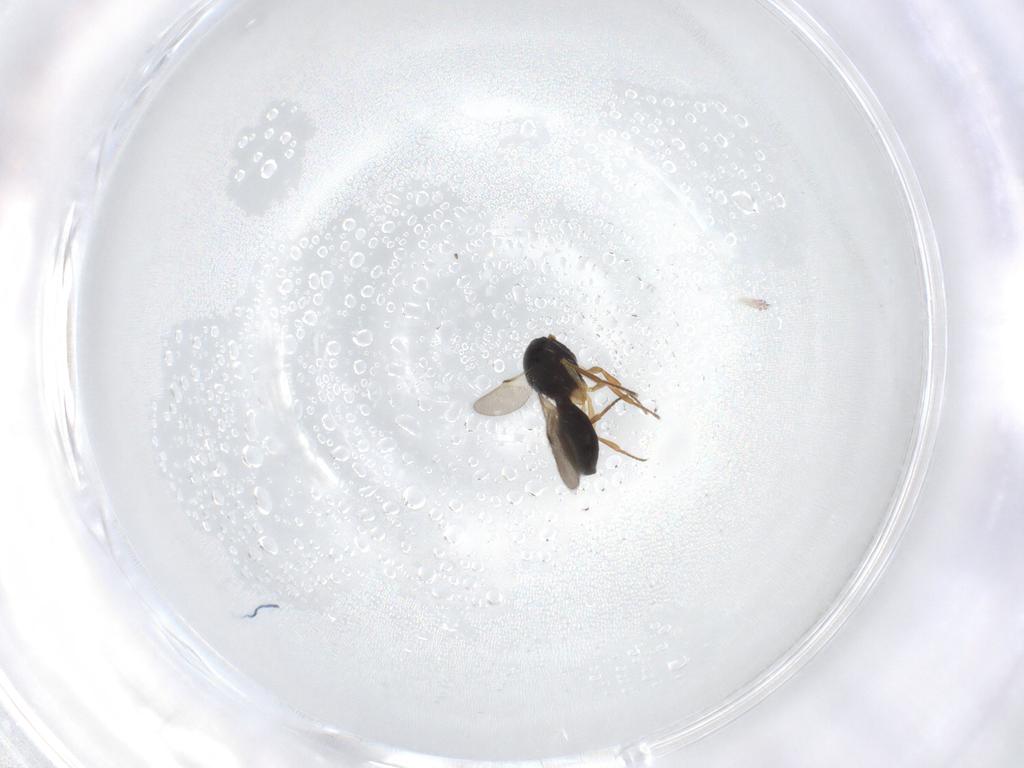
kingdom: Animalia
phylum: Arthropoda
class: Insecta
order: Hymenoptera
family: Scelionidae
